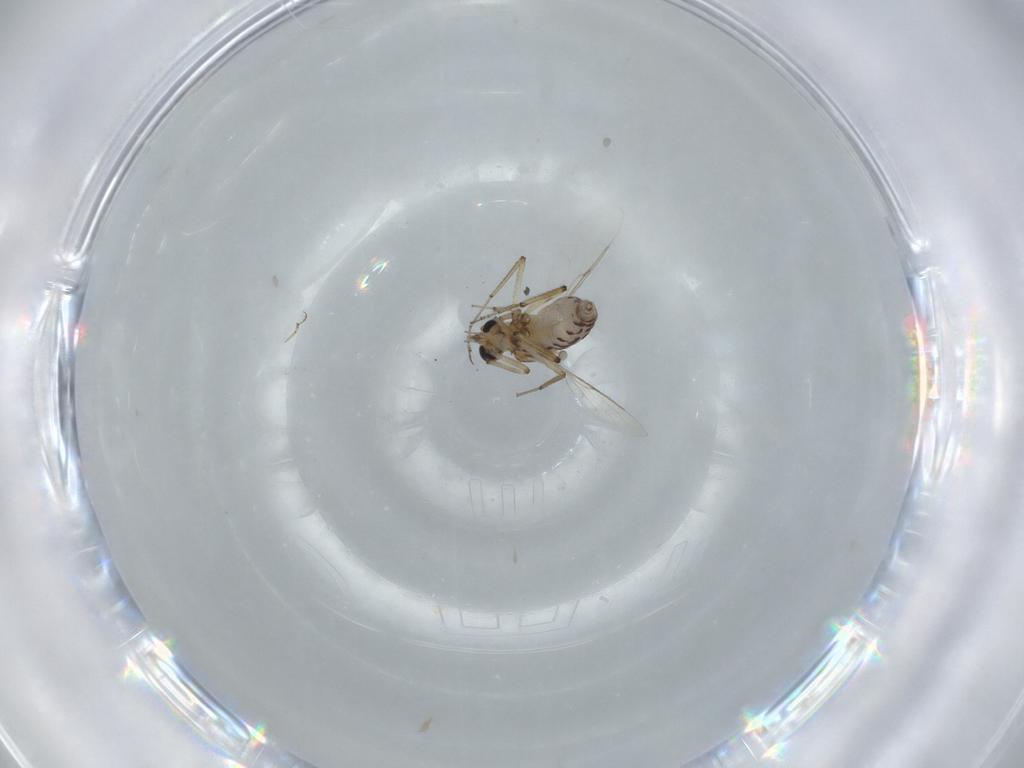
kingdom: Animalia
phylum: Arthropoda
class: Insecta
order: Diptera
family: Ceratopogonidae
